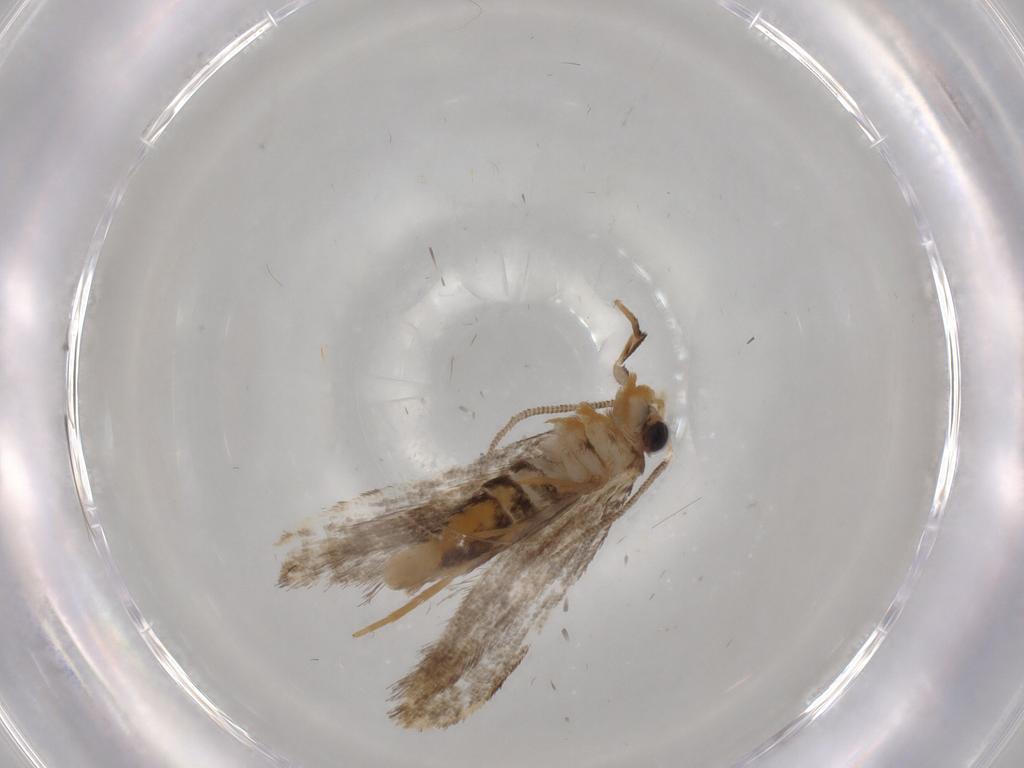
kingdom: Animalia
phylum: Arthropoda
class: Insecta
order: Lepidoptera
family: Tineidae
